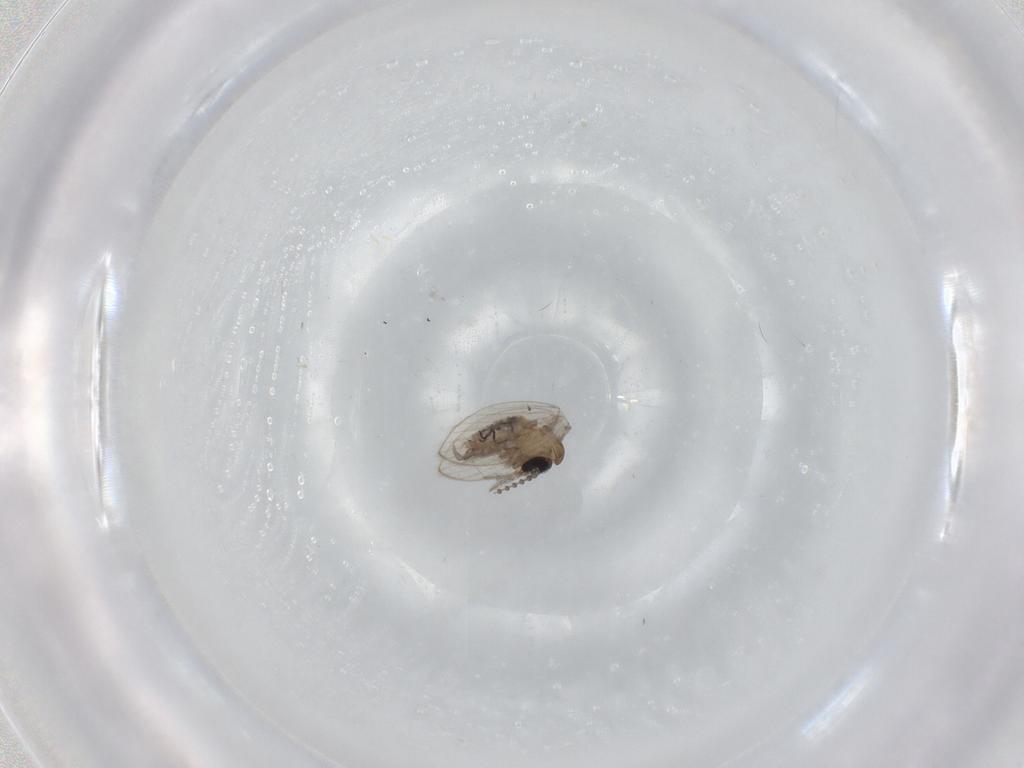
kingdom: Animalia
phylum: Arthropoda
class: Insecta
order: Diptera
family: Psychodidae
